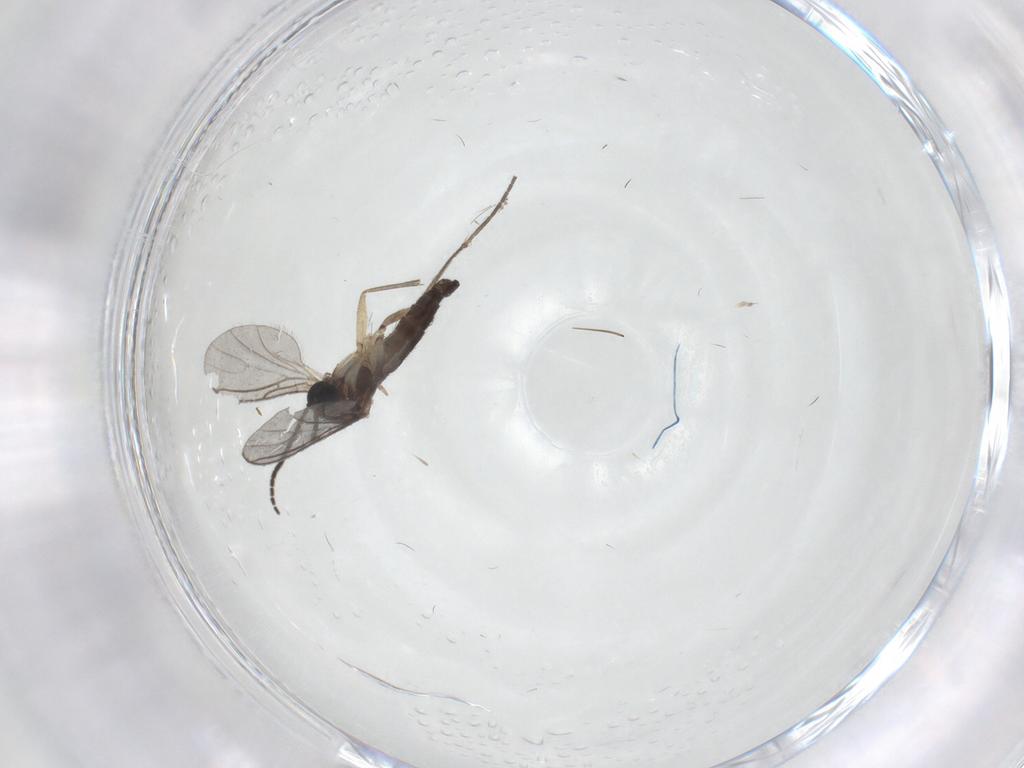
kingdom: Animalia
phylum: Arthropoda
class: Insecta
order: Diptera
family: Sciaridae
